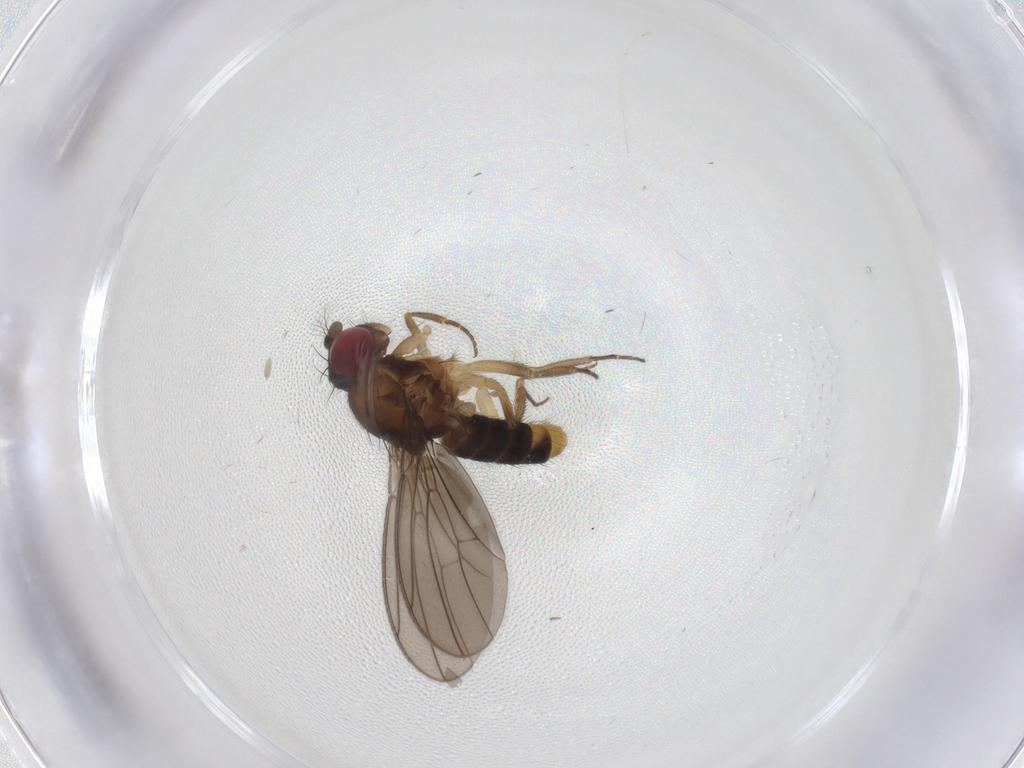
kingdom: Animalia
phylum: Arthropoda
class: Insecta
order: Diptera
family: Drosophilidae
